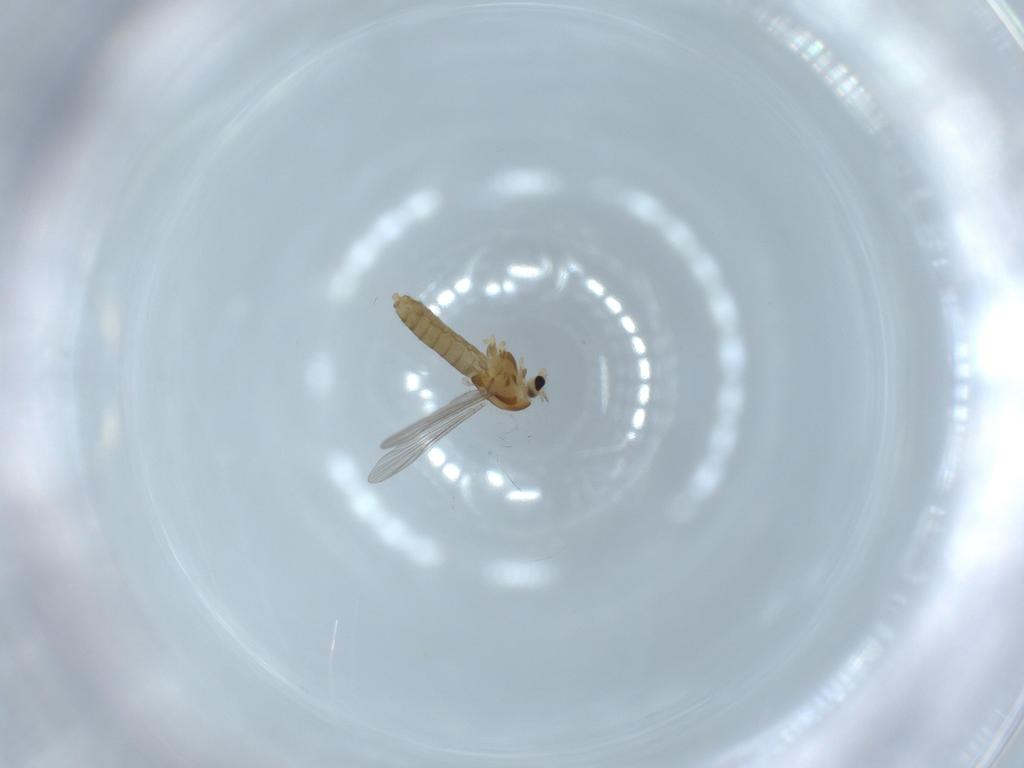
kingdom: Animalia
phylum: Arthropoda
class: Insecta
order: Diptera
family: Chironomidae
